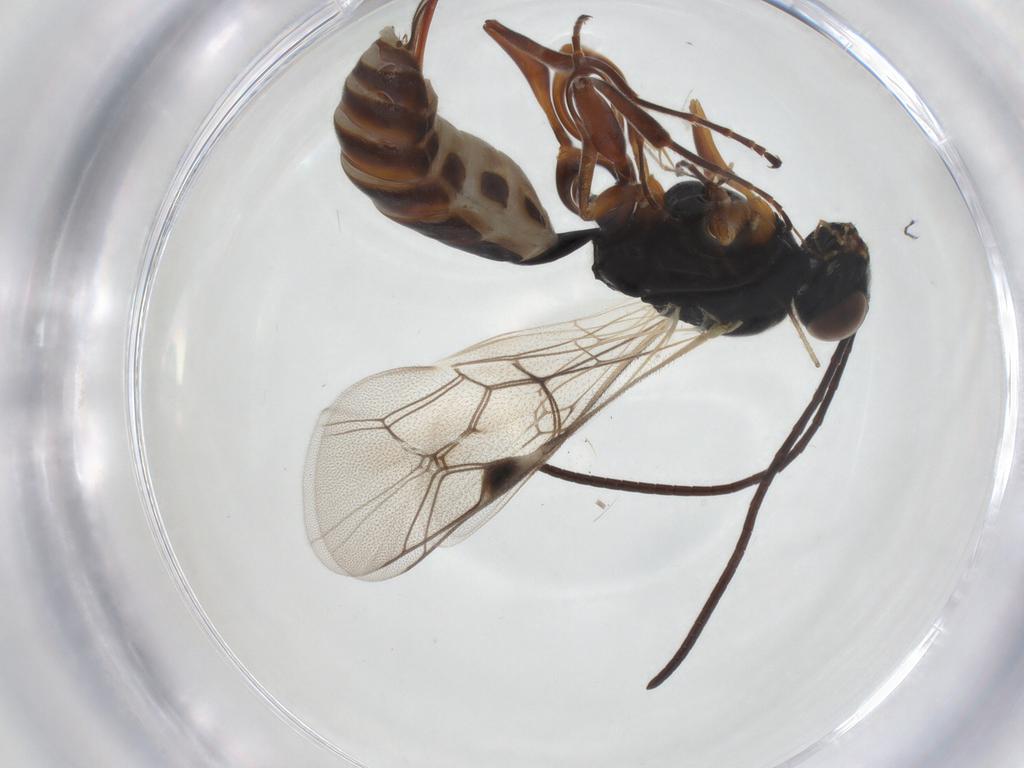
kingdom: Animalia
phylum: Arthropoda
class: Insecta
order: Hymenoptera
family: Ichneumonidae
